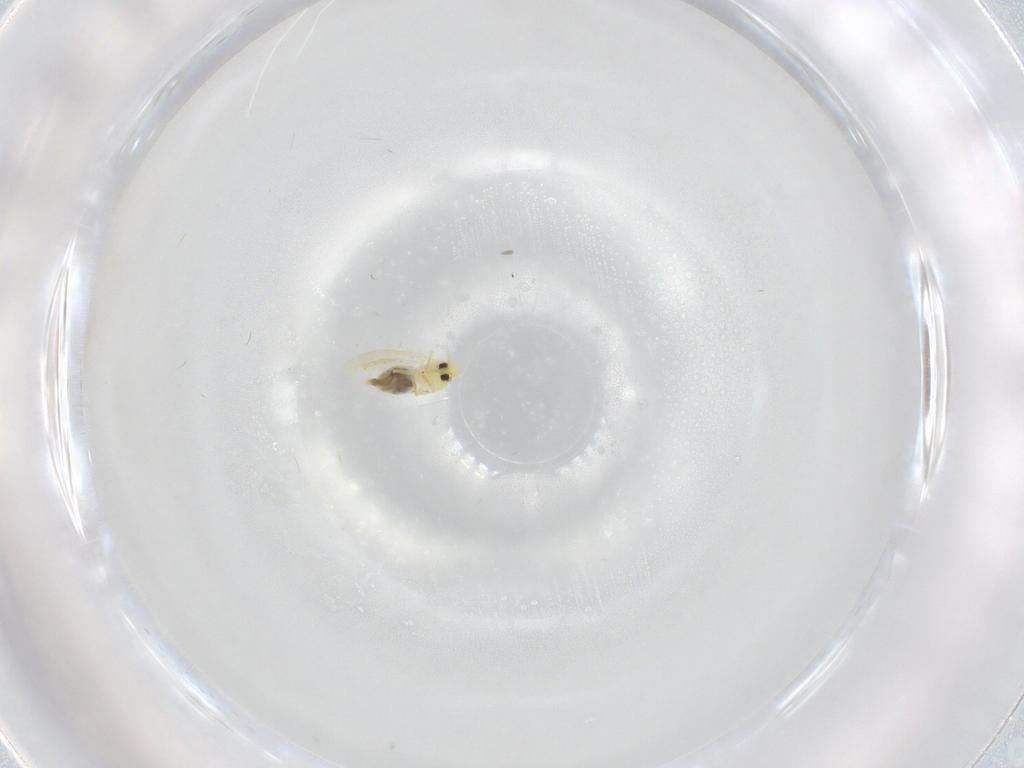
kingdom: Animalia
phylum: Arthropoda
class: Insecta
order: Hemiptera
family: Aleyrodidae
